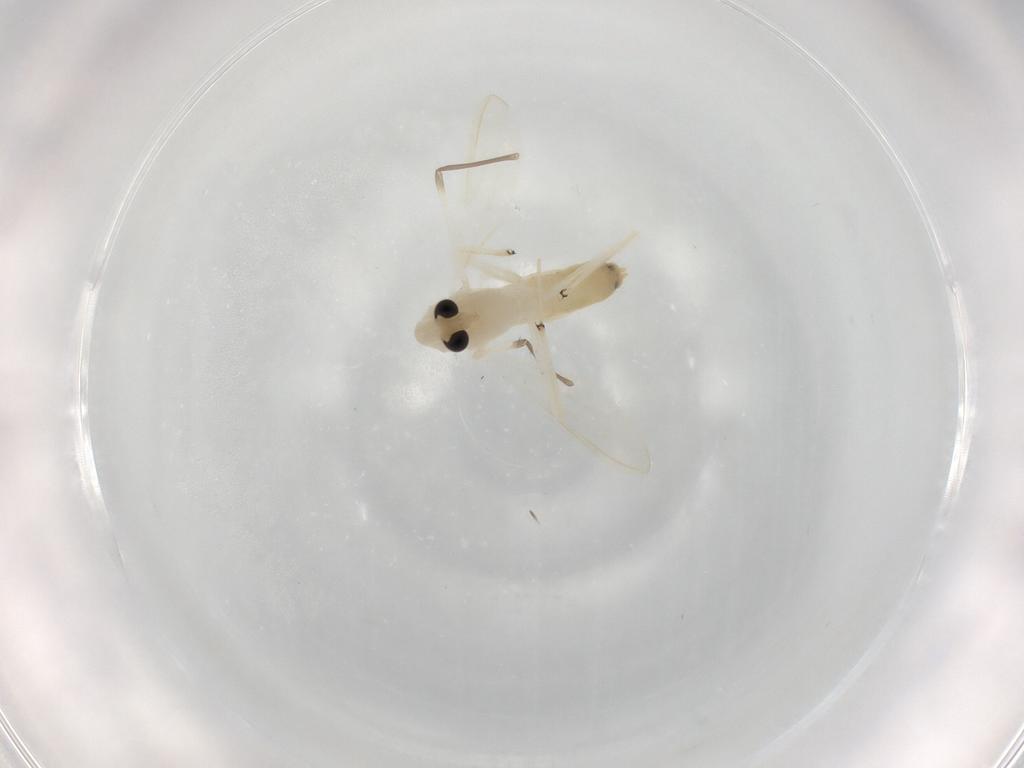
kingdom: Animalia
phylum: Arthropoda
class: Insecta
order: Diptera
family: Chironomidae
